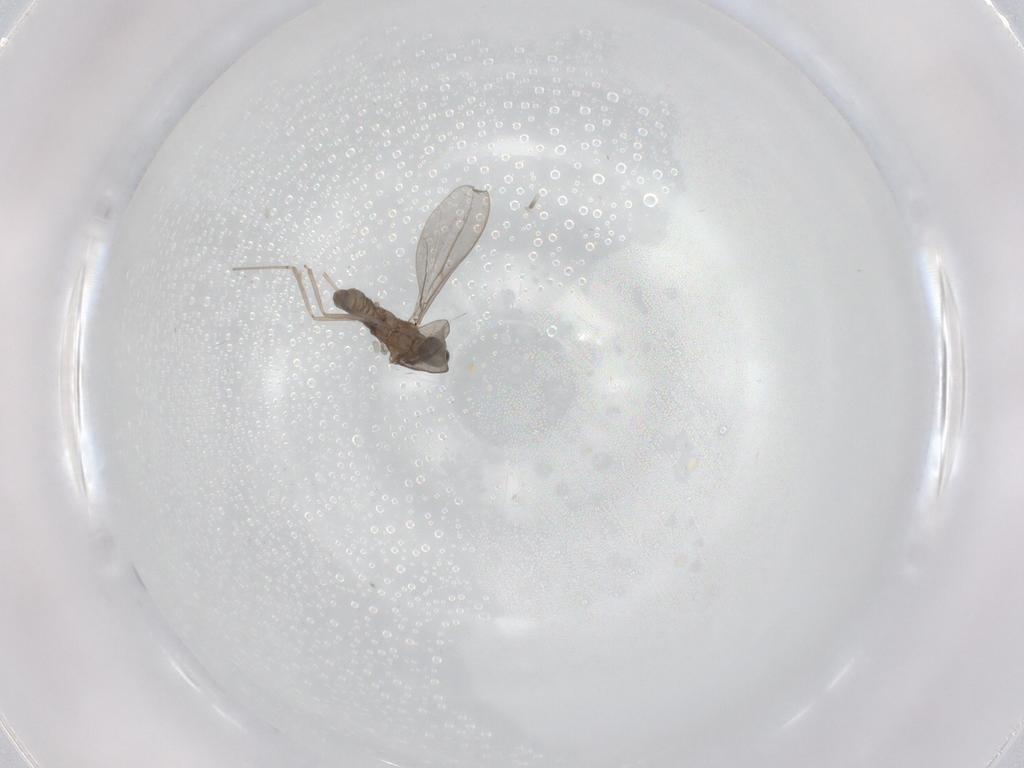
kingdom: Animalia
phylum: Arthropoda
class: Insecta
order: Diptera
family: Cecidomyiidae
